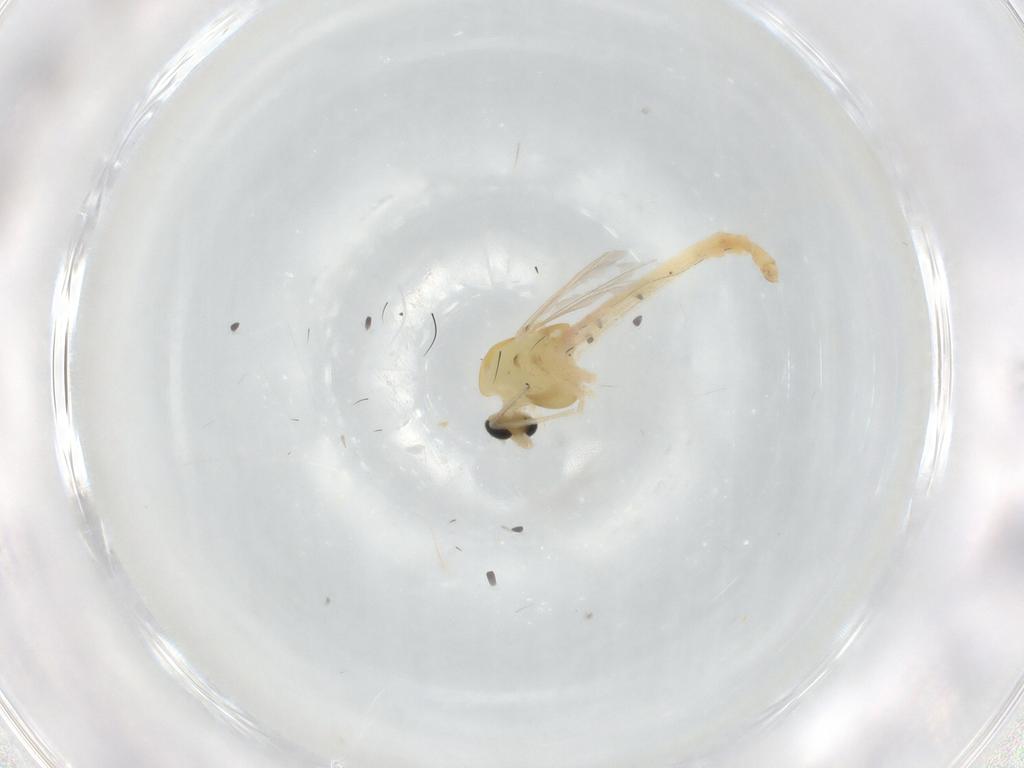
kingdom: Animalia
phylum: Arthropoda
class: Insecta
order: Diptera
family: Chironomidae
